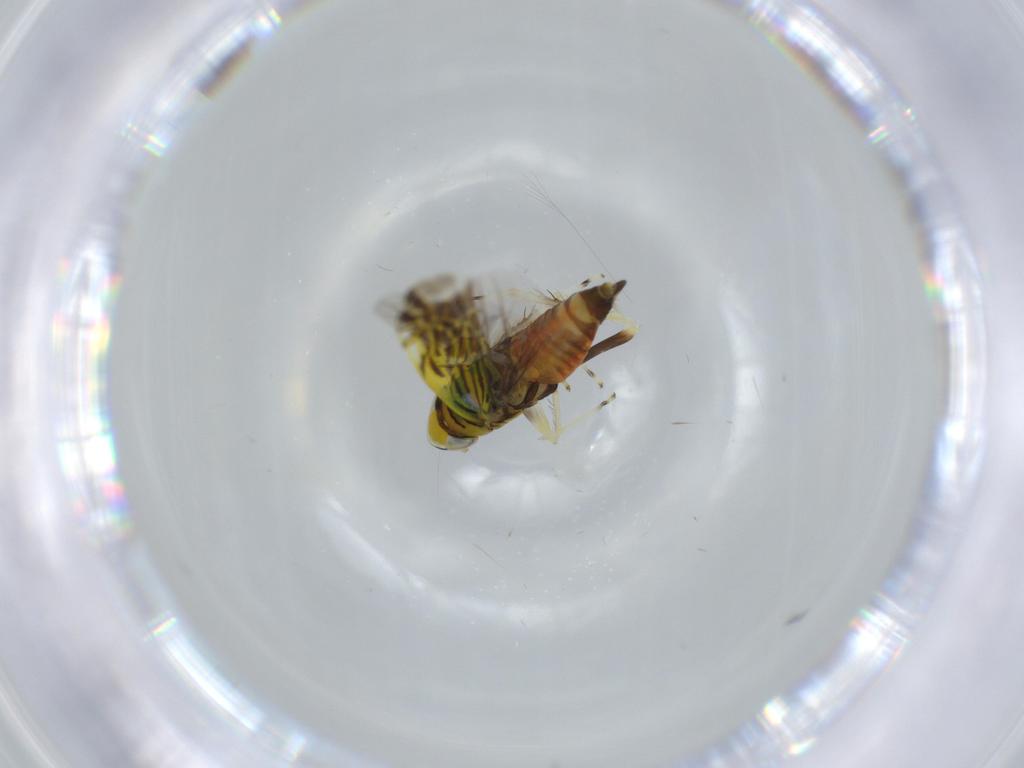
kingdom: Animalia
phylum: Arthropoda
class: Insecta
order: Hemiptera
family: Cicadellidae
